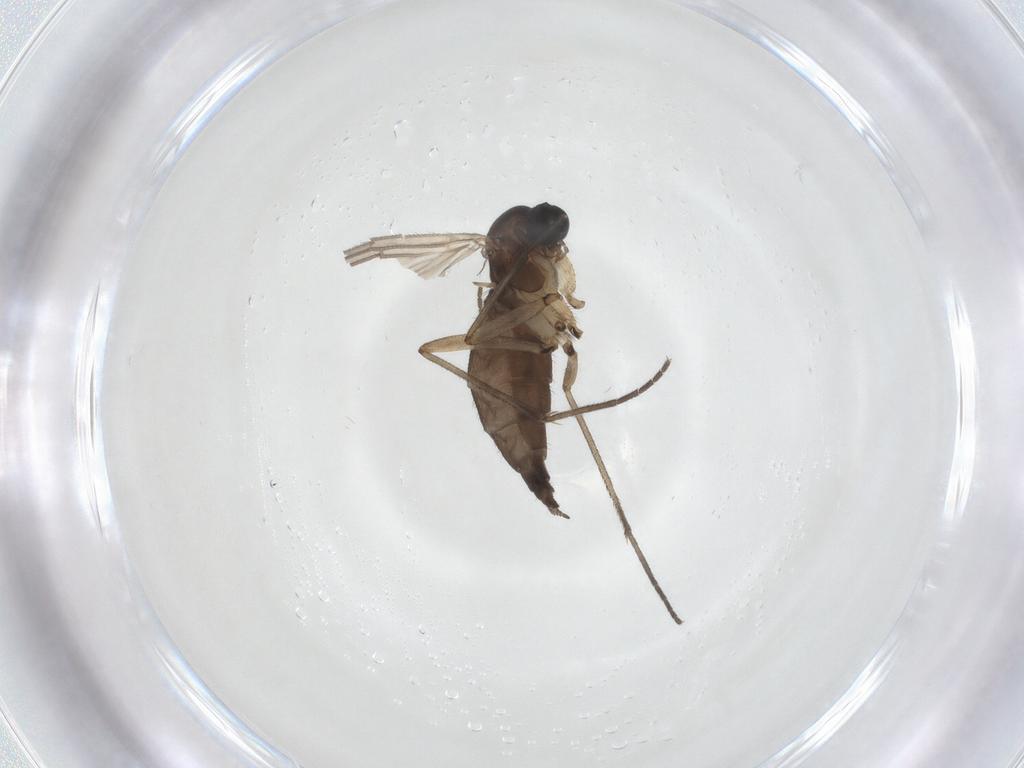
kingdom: Animalia
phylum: Arthropoda
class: Insecta
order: Diptera
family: Sciaridae
